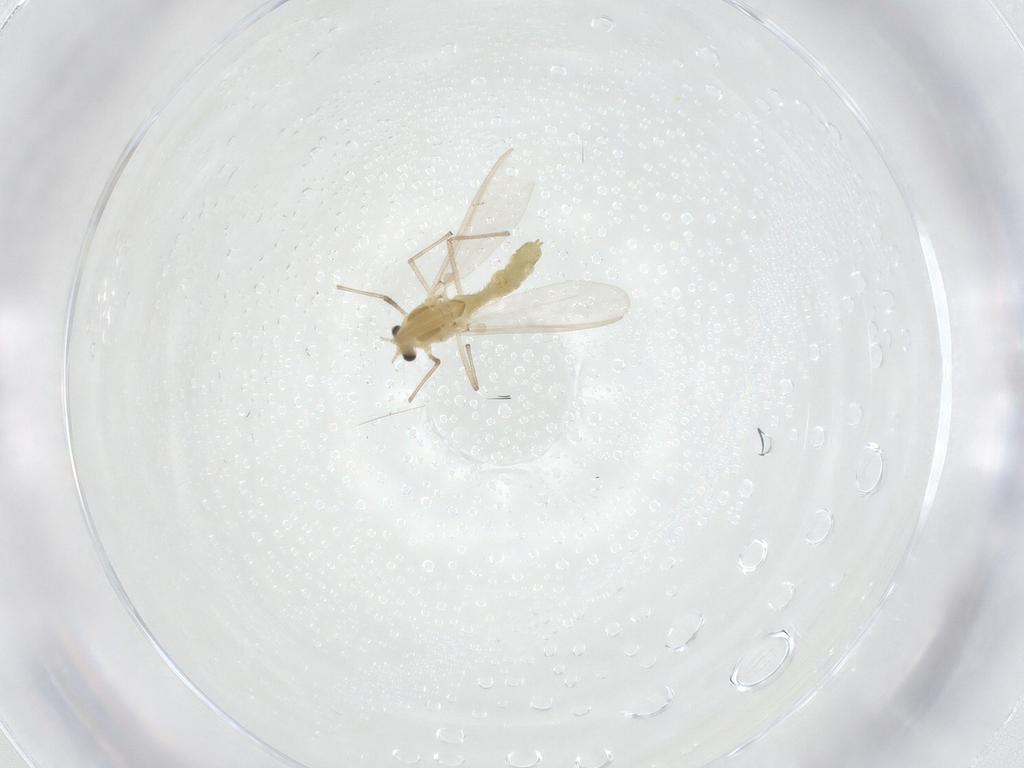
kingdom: Animalia
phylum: Arthropoda
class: Insecta
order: Diptera
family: Chironomidae
